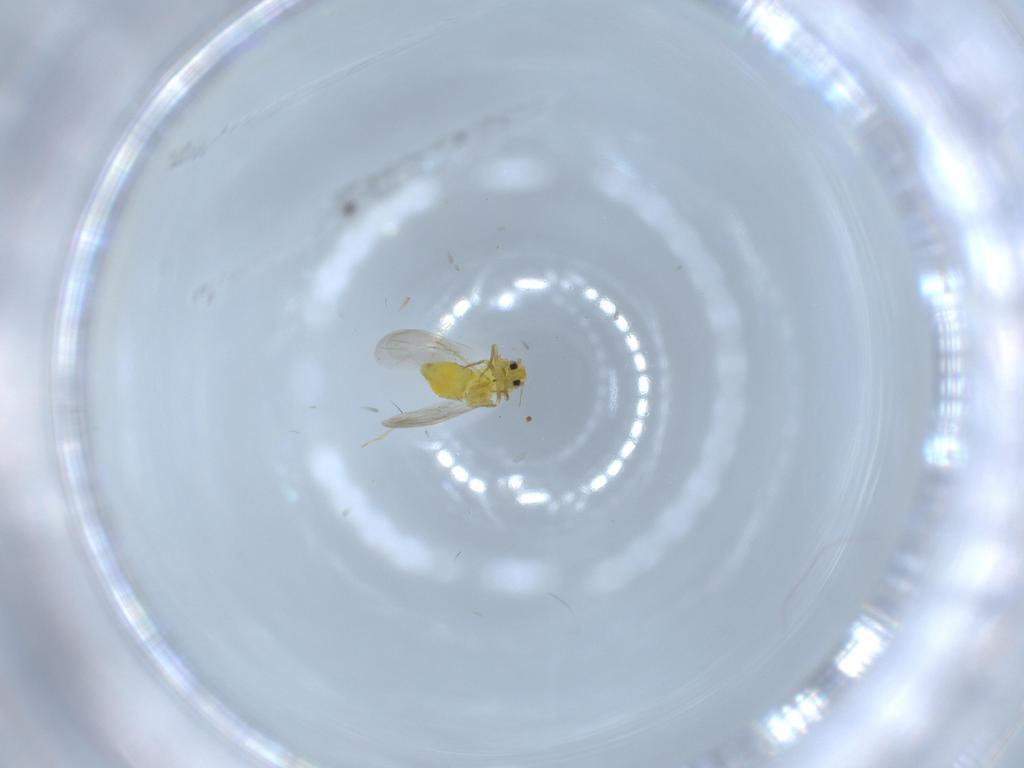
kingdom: Animalia
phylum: Arthropoda
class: Insecta
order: Hemiptera
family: Aleyrodidae
